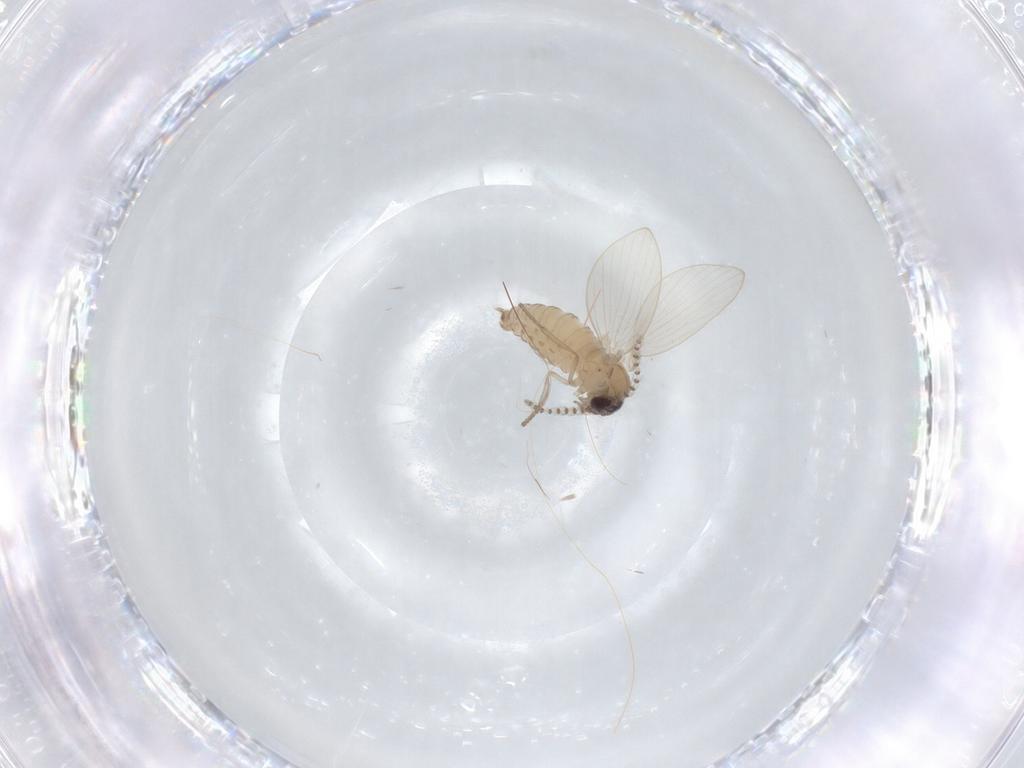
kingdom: Animalia
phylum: Arthropoda
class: Insecta
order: Diptera
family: Psychodidae
